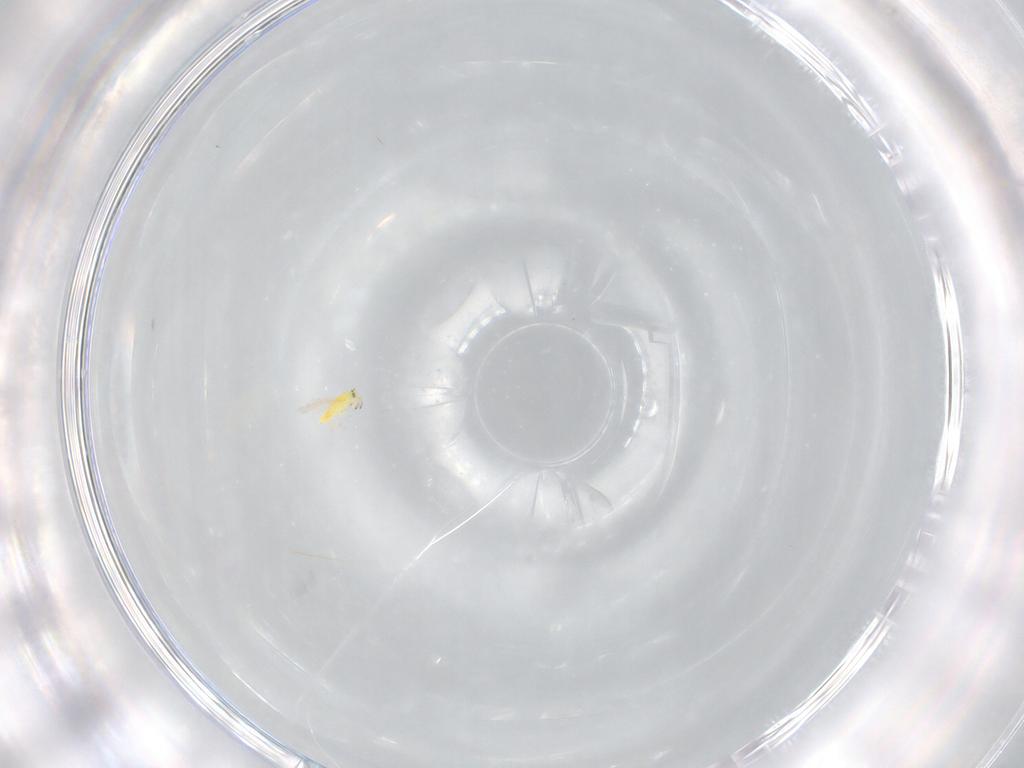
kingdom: Animalia
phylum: Arthropoda
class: Insecta
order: Hymenoptera
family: Aphelinidae
